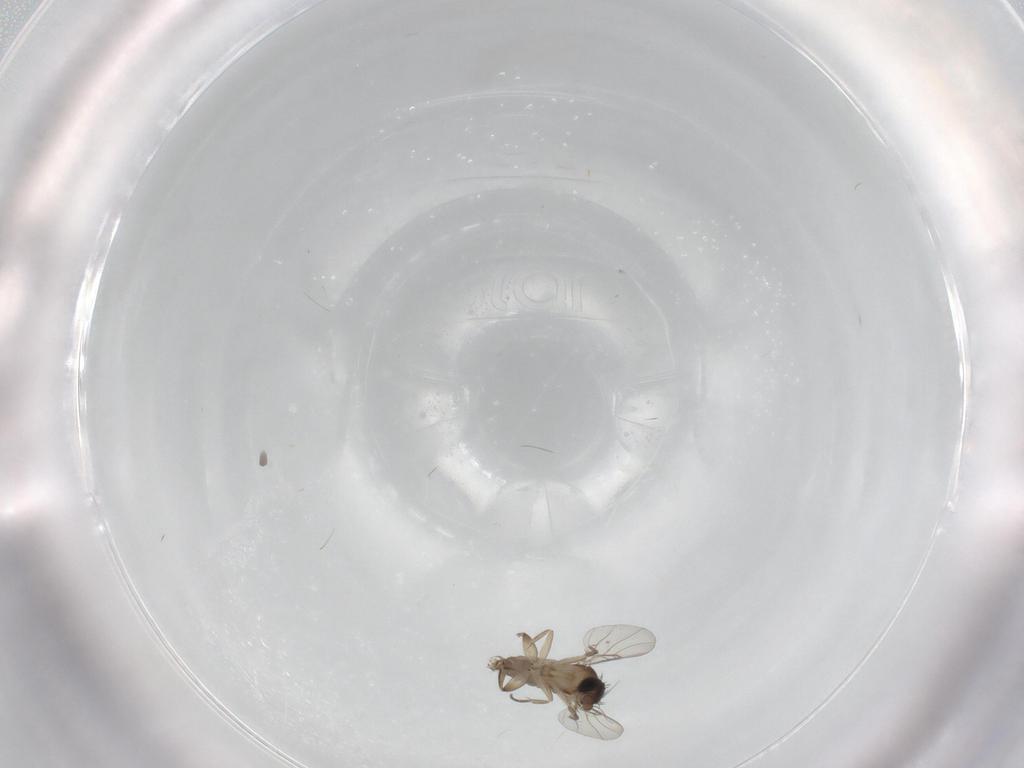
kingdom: Animalia
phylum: Arthropoda
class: Insecta
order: Diptera
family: Phoridae
